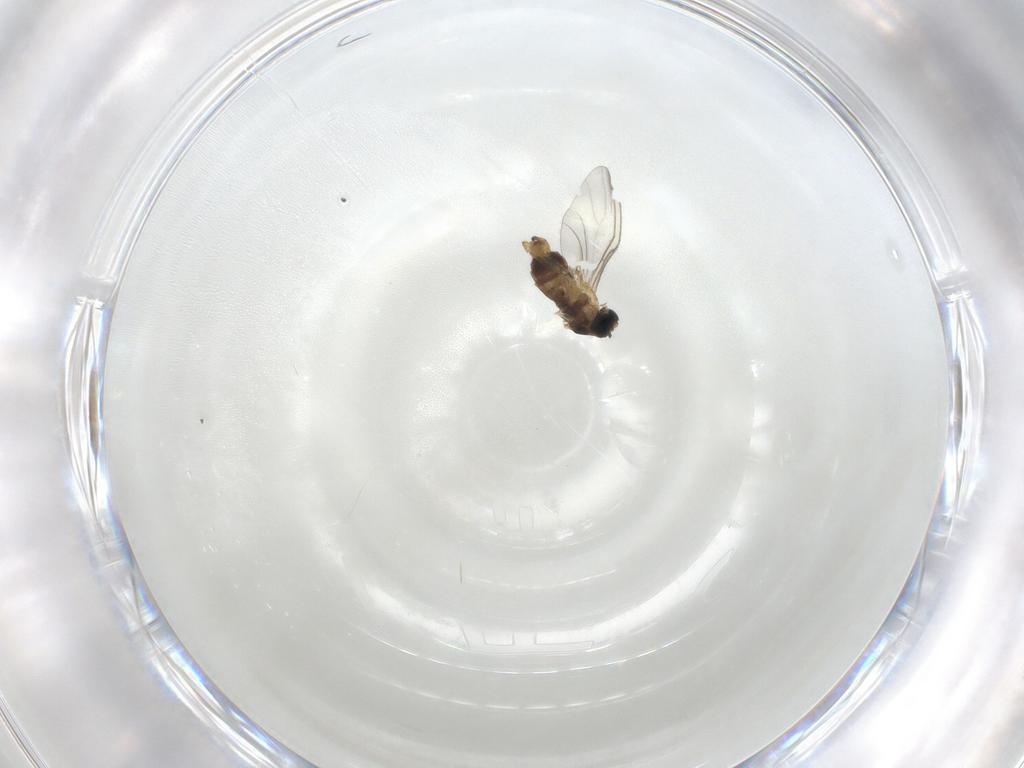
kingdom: Animalia
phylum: Arthropoda
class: Insecta
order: Diptera
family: Sciaridae
